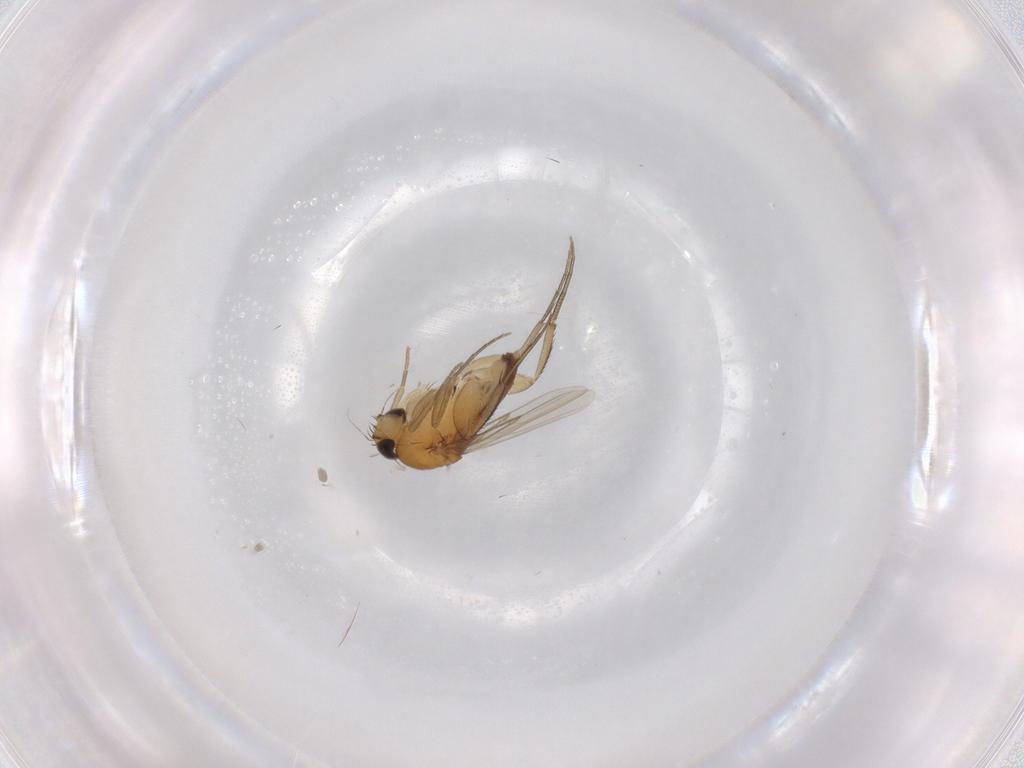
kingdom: Animalia
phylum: Arthropoda
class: Insecta
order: Diptera
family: Phoridae
